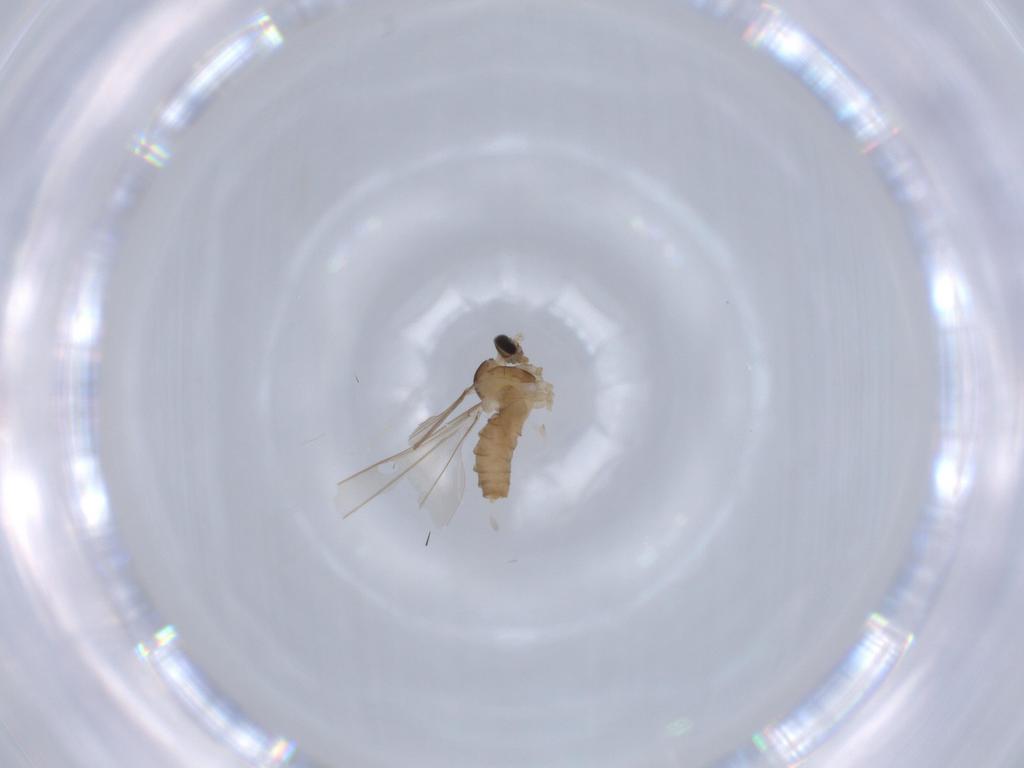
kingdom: Animalia
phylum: Arthropoda
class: Insecta
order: Diptera
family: Cecidomyiidae
